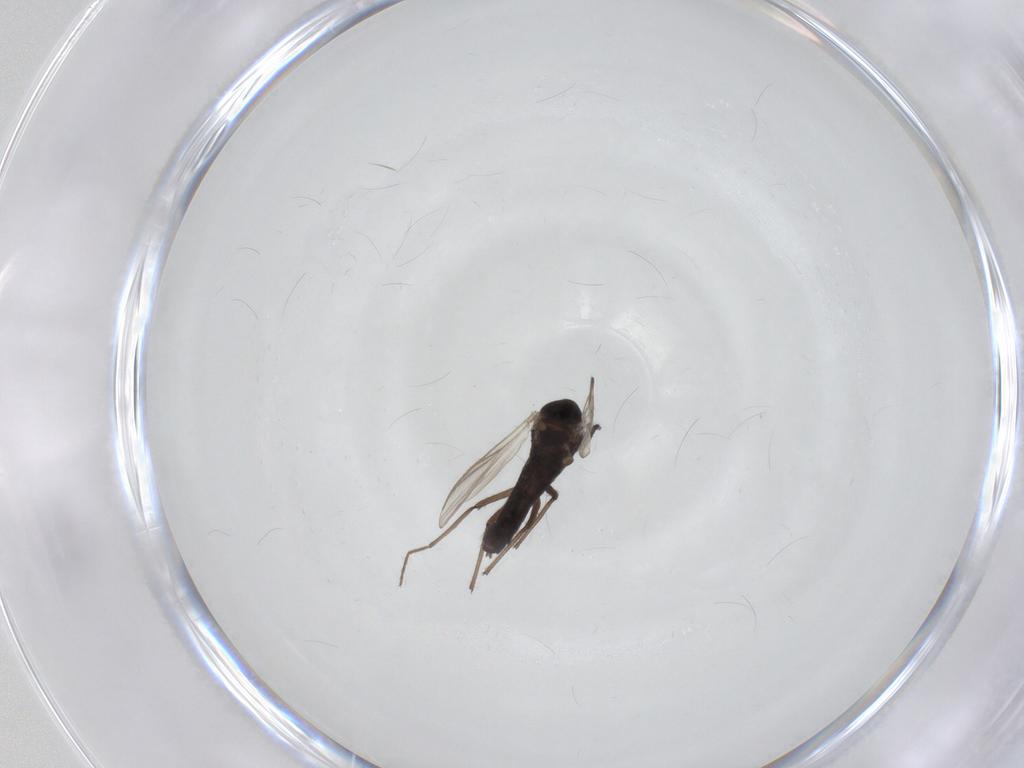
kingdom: Animalia
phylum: Arthropoda
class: Insecta
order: Diptera
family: Chironomidae
